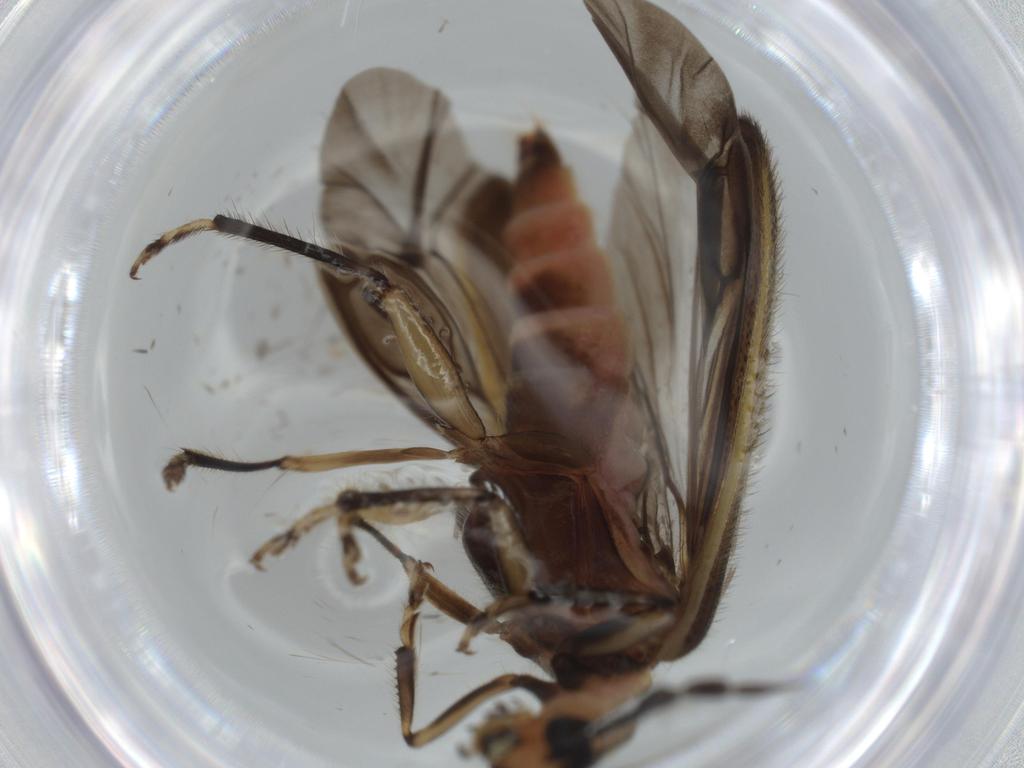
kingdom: Animalia
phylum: Arthropoda
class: Insecta
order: Coleoptera
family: Cleridae
